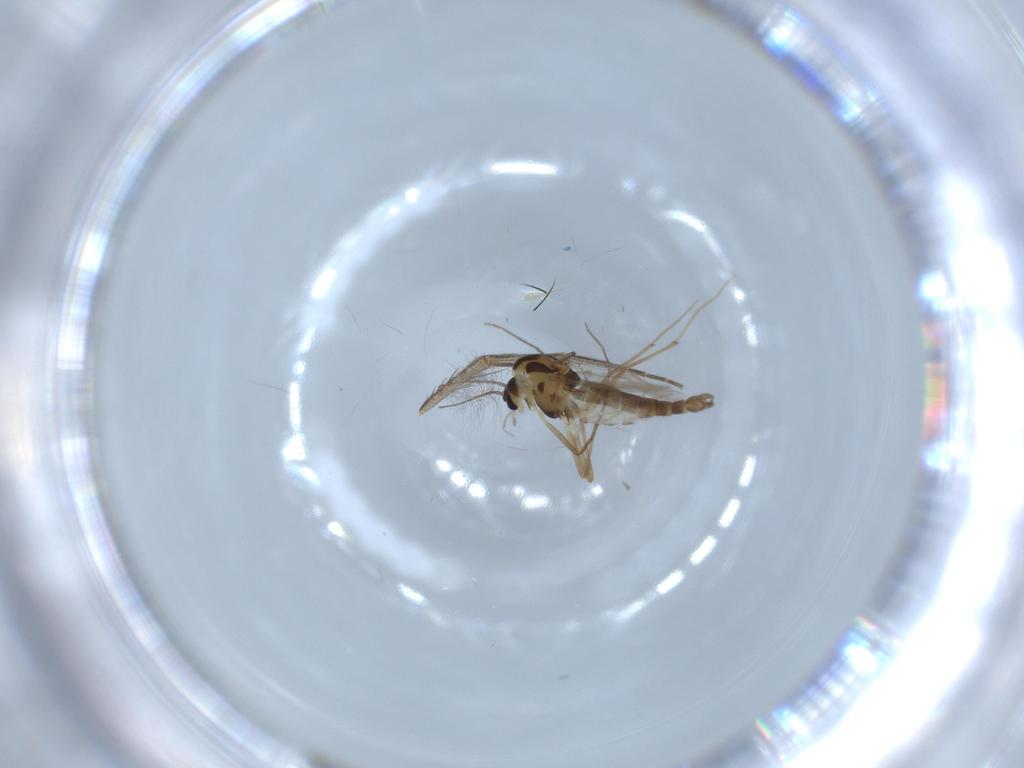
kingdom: Animalia
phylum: Arthropoda
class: Insecta
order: Diptera
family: Chironomidae
